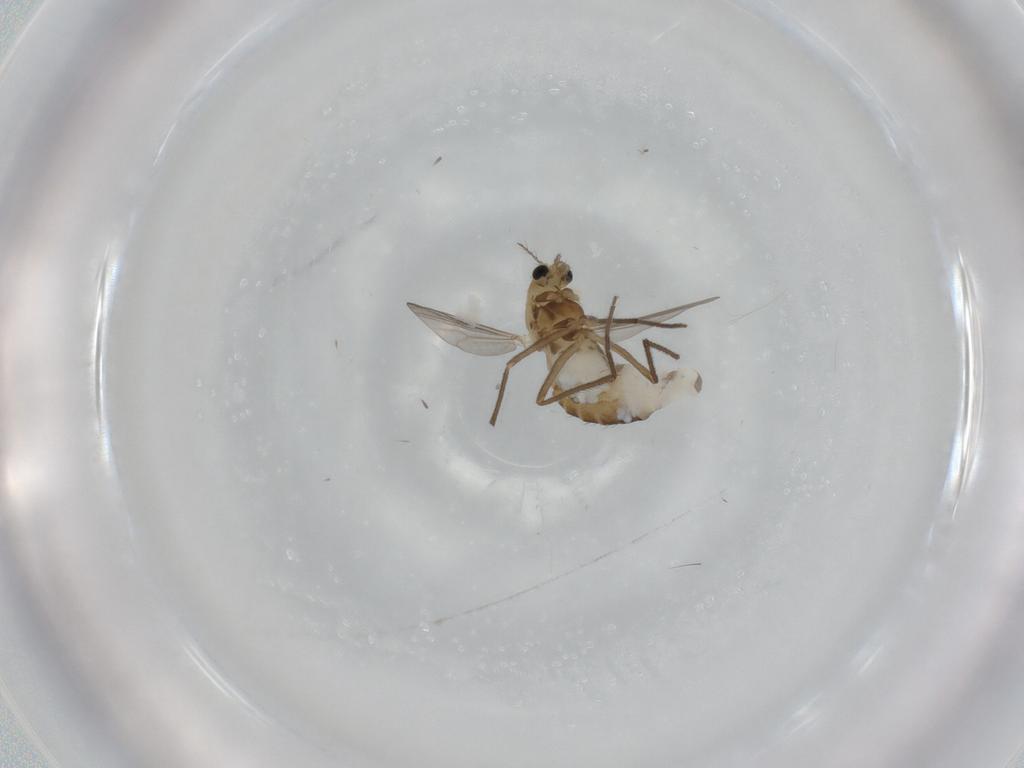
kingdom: Animalia
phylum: Arthropoda
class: Insecta
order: Diptera
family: Chironomidae
